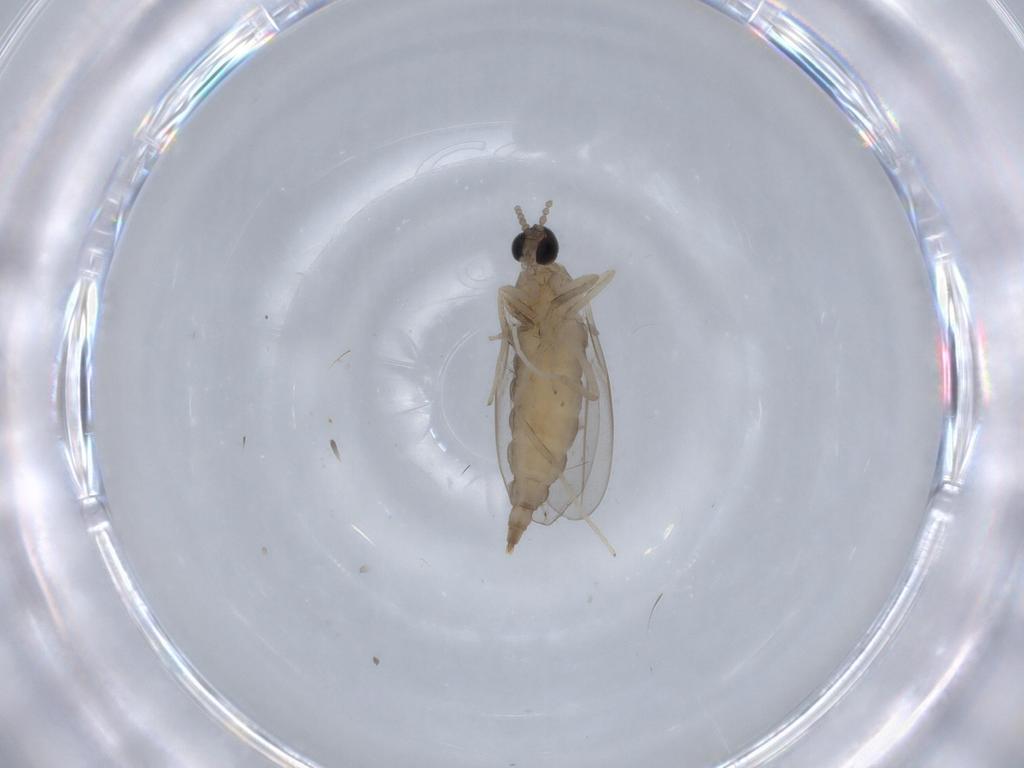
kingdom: Animalia
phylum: Arthropoda
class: Insecta
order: Diptera
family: Cecidomyiidae
